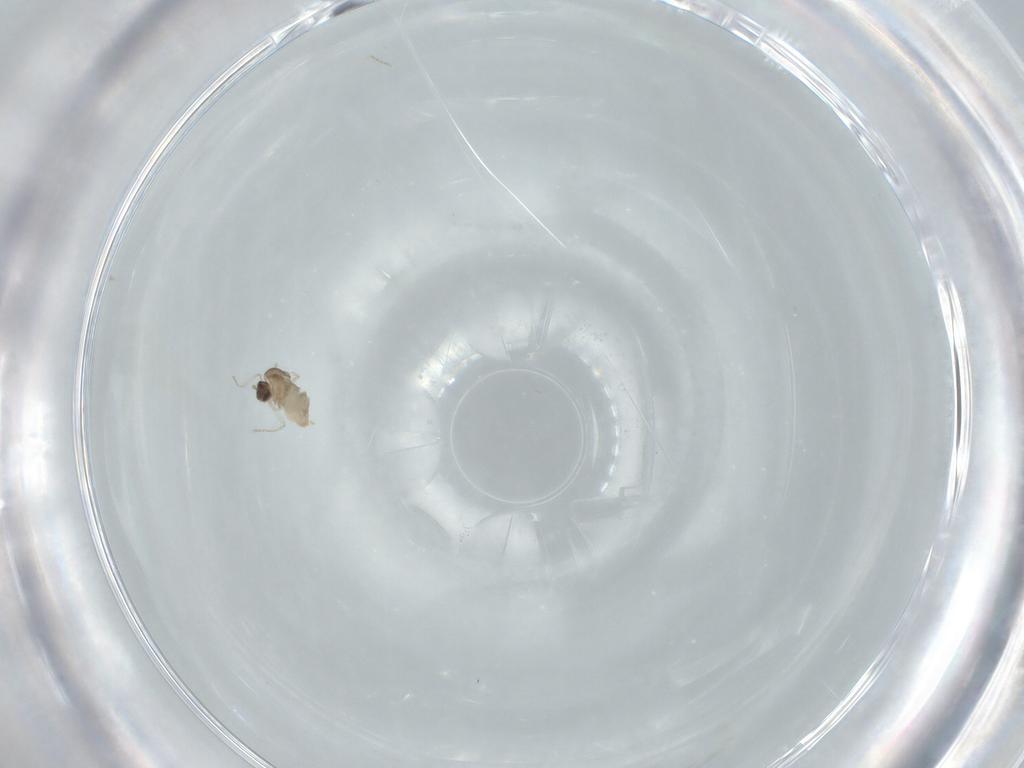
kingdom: Animalia
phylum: Arthropoda
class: Insecta
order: Diptera
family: Cecidomyiidae
